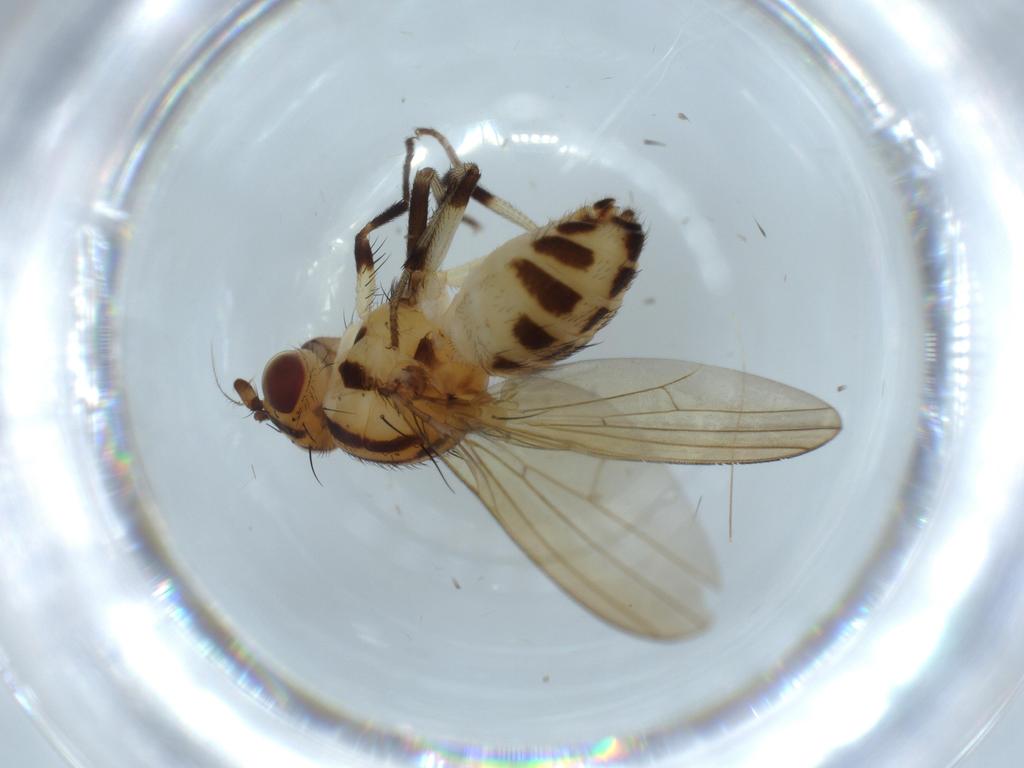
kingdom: Animalia
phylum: Arthropoda
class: Insecta
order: Diptera
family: Lauxaniidae
